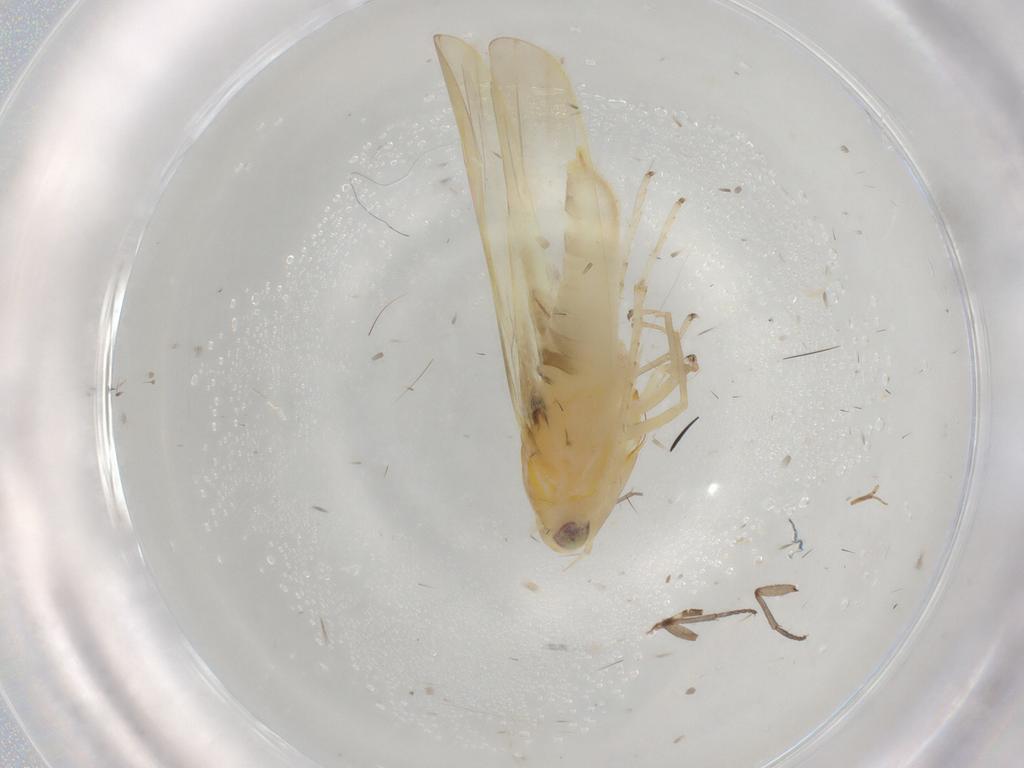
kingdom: Animalia
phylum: Arthropoda
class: Insecta
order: Hemiptera
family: Cicadellidae
